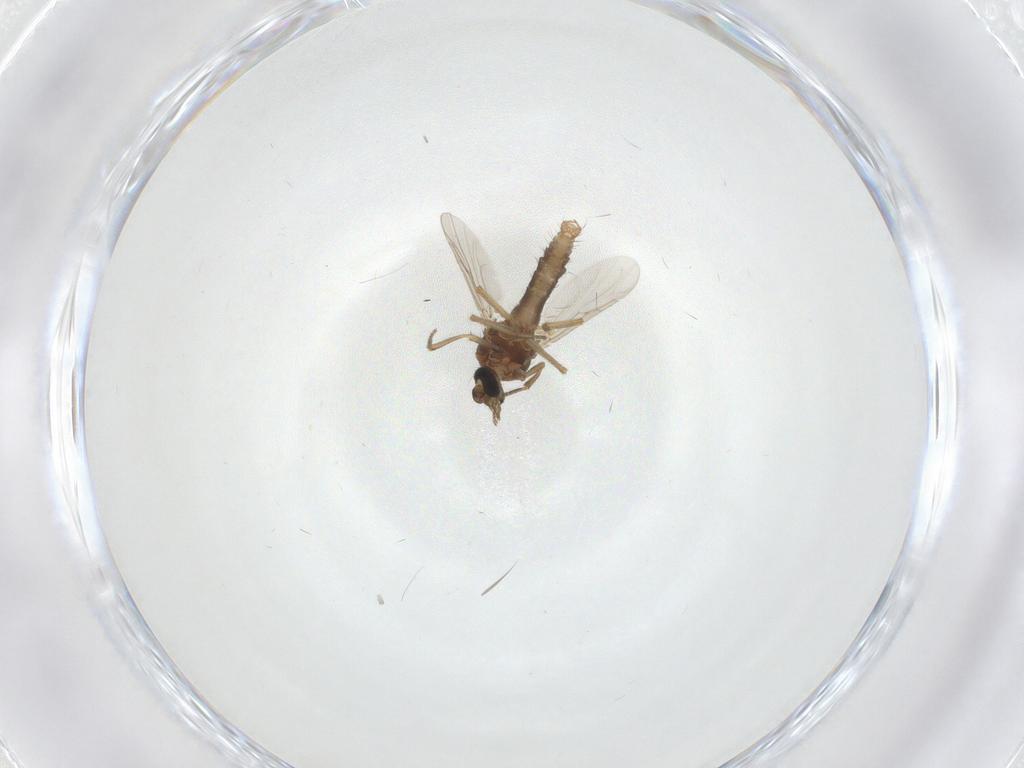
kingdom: Animalia
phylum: Arthropoda
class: Insecta
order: Diptera
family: Ceratopogonidae
